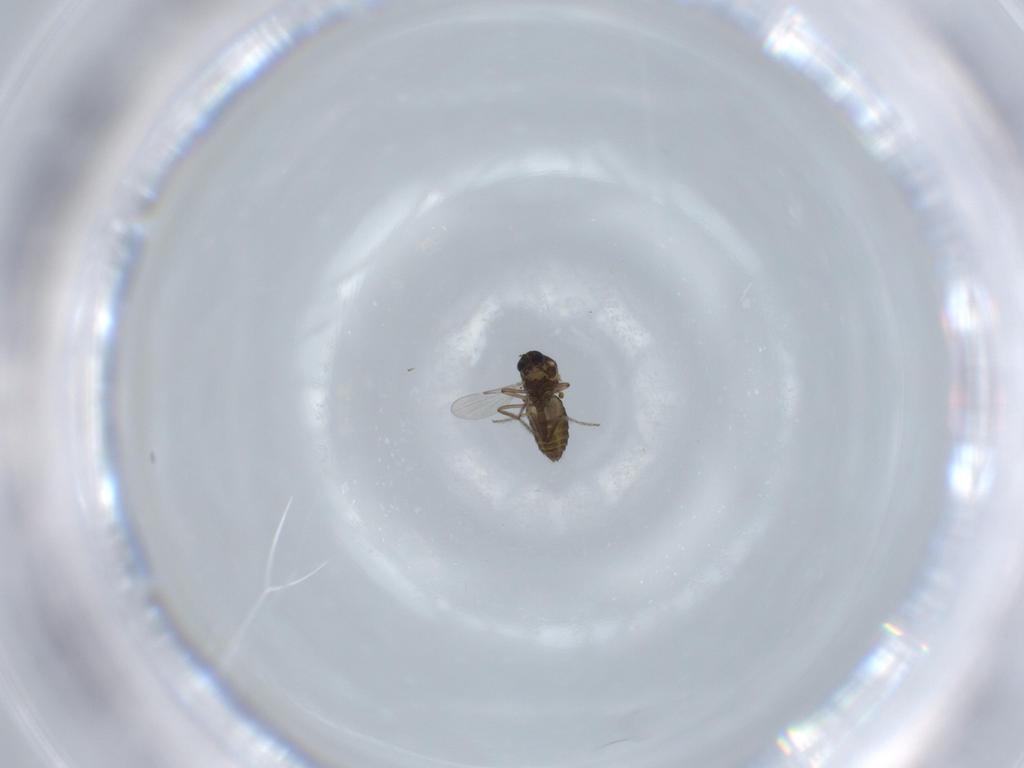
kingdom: Animalia
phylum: Arthropoda
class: Insecta
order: Diptera
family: Ceratopogonidae
